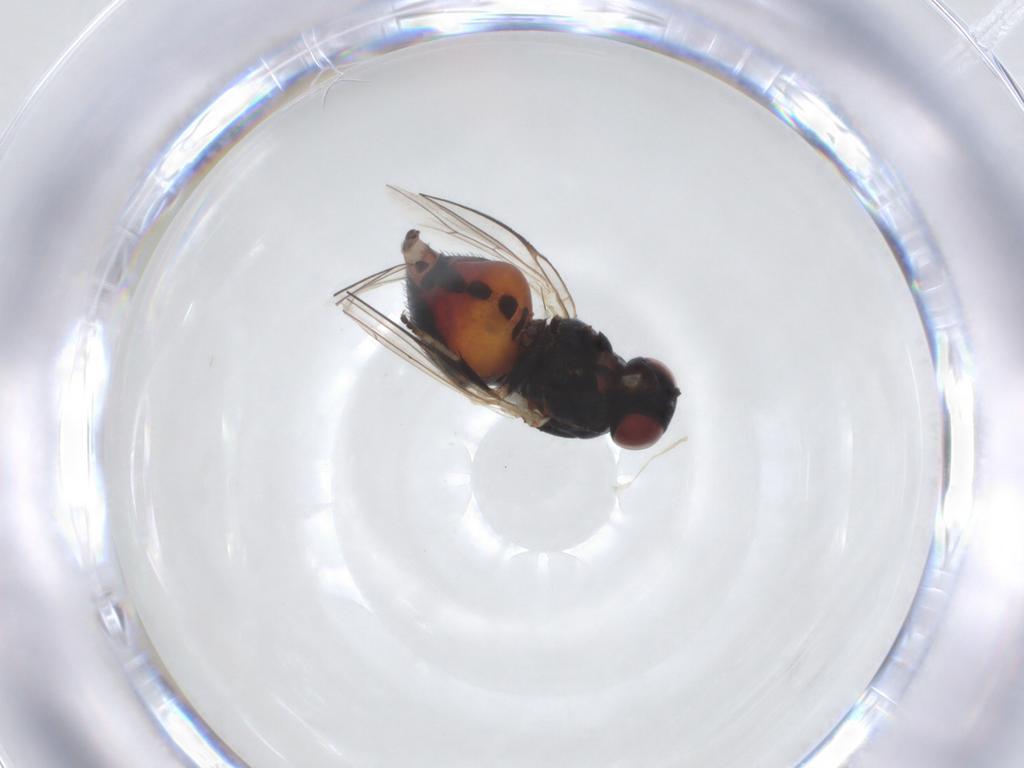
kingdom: Animalia
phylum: Arthropoda
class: Insecta
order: Diptera
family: Chamaemyiidae
